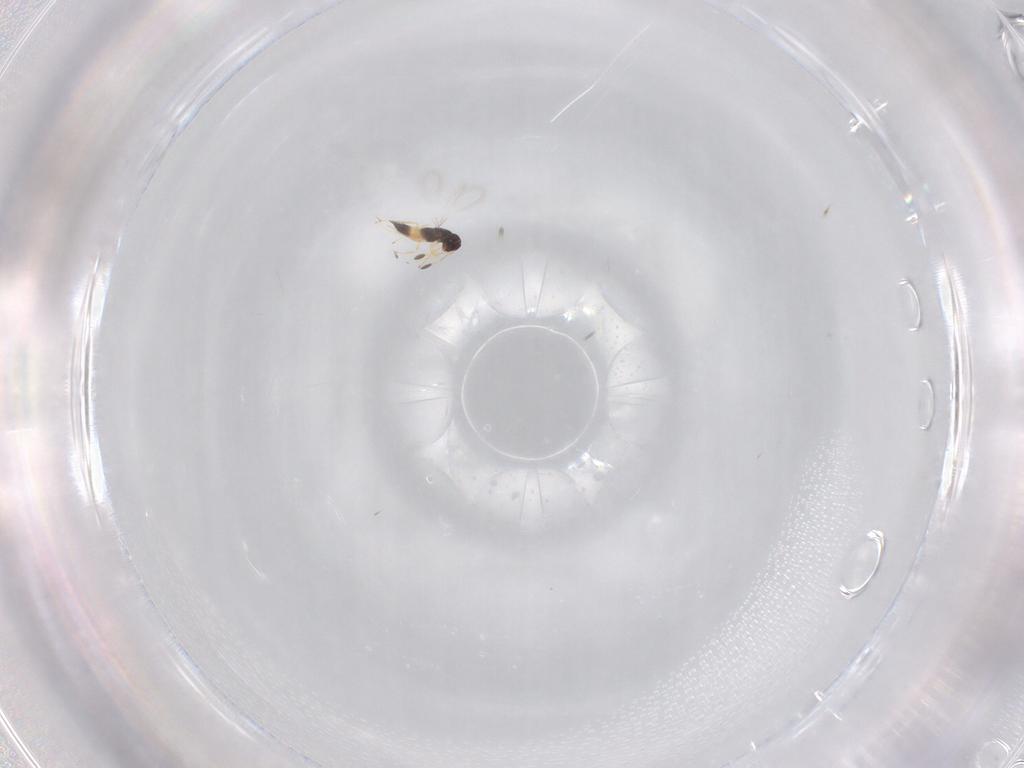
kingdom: Animalia
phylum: Arthropoda
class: Insecta
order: Hymenoptera
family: Mymaridae
